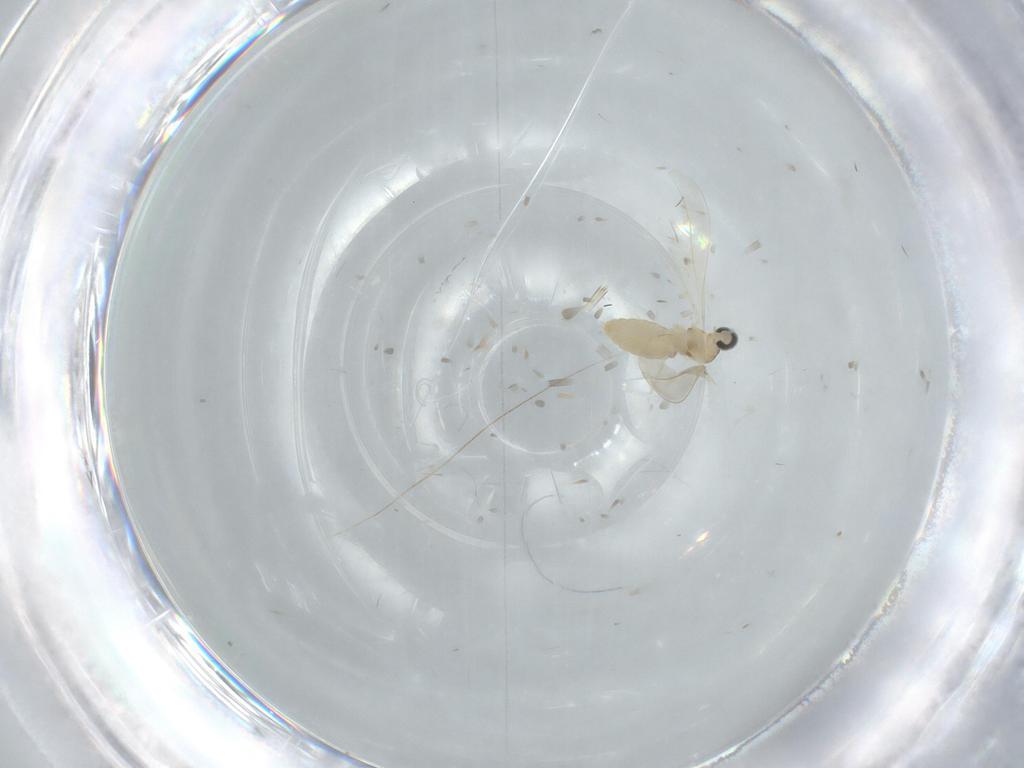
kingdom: Animalia
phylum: Arthropoda
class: Insecta
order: Diptera
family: Cecidomyiidae
